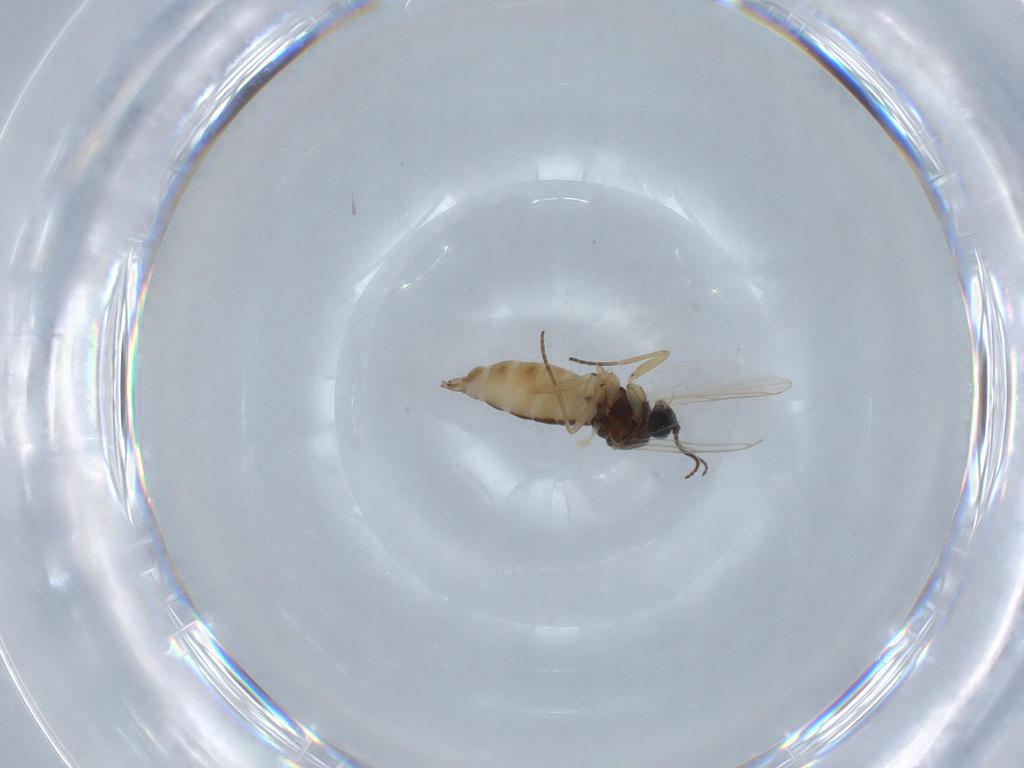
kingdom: Animalia
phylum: Arthropoda
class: Insecta
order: Diptera
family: Sciaridae
